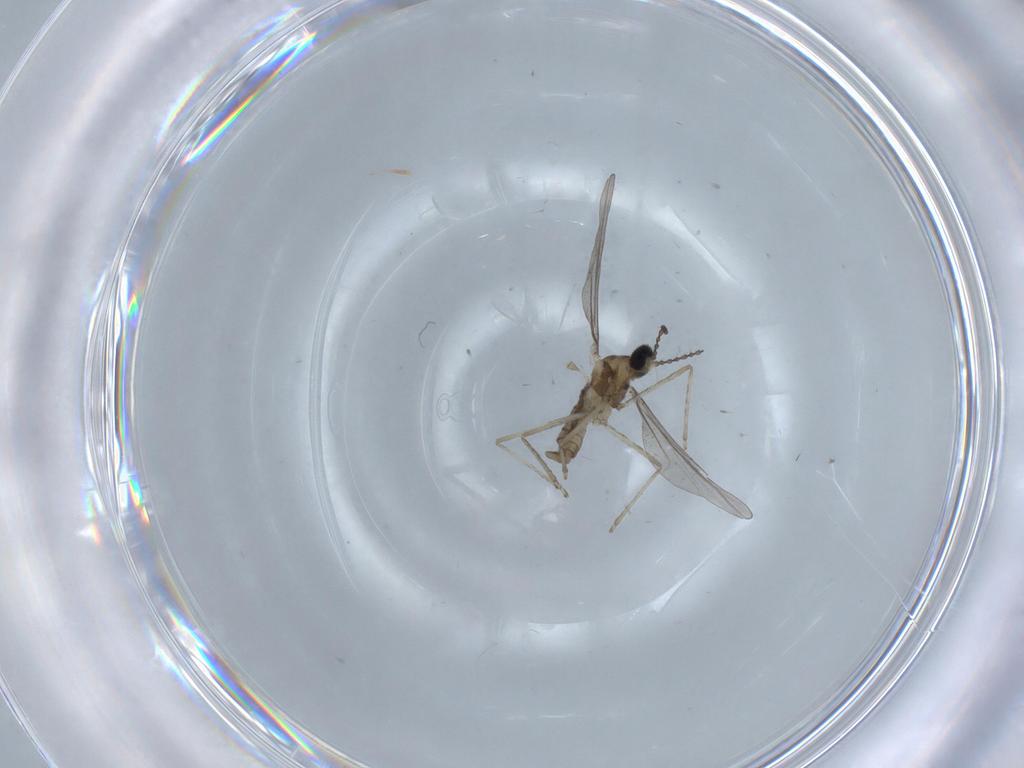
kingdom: Animalia
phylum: Arthropoda
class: Insecta
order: Diptera
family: Cecidomyiidae
